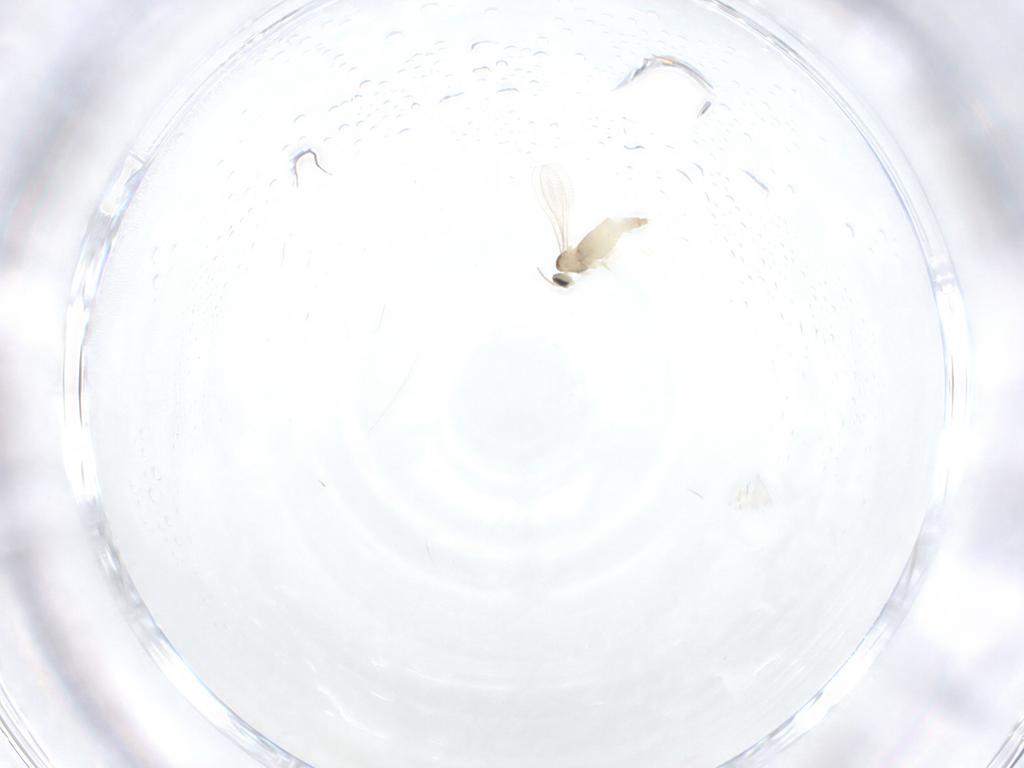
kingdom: Animalia
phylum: Arthropoda
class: Insecta
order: Diptera
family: Cecidomyiidae
